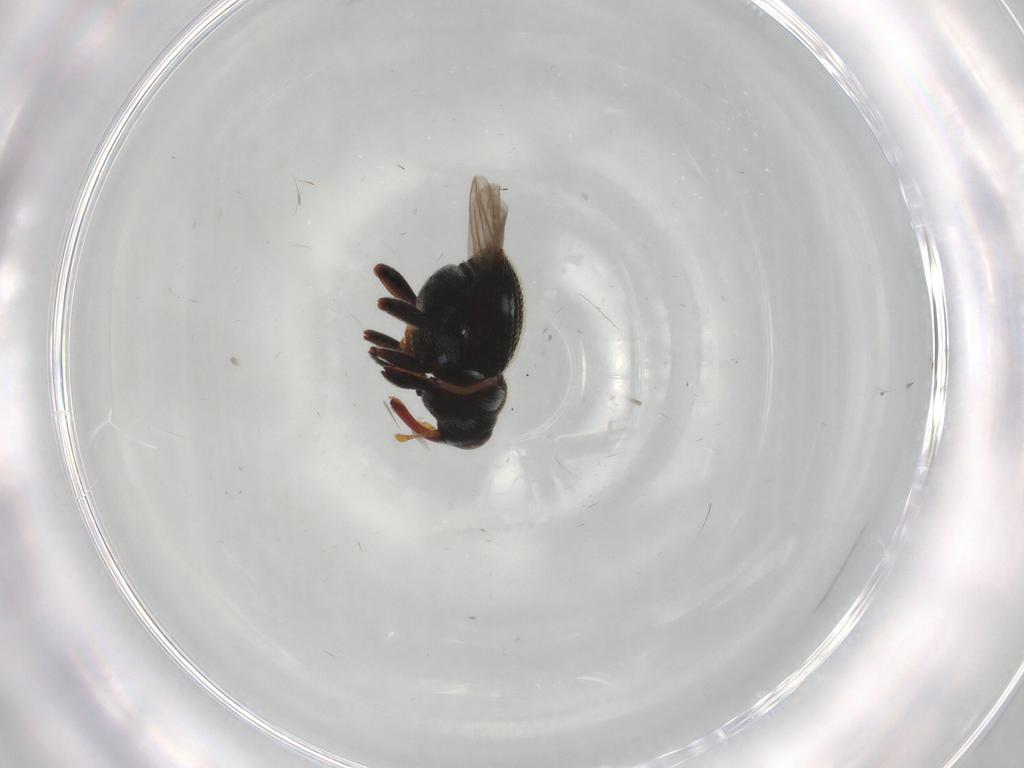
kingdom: Animalia
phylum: Arthropoda
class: Insecta
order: Coleoptera
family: Curculionidae
